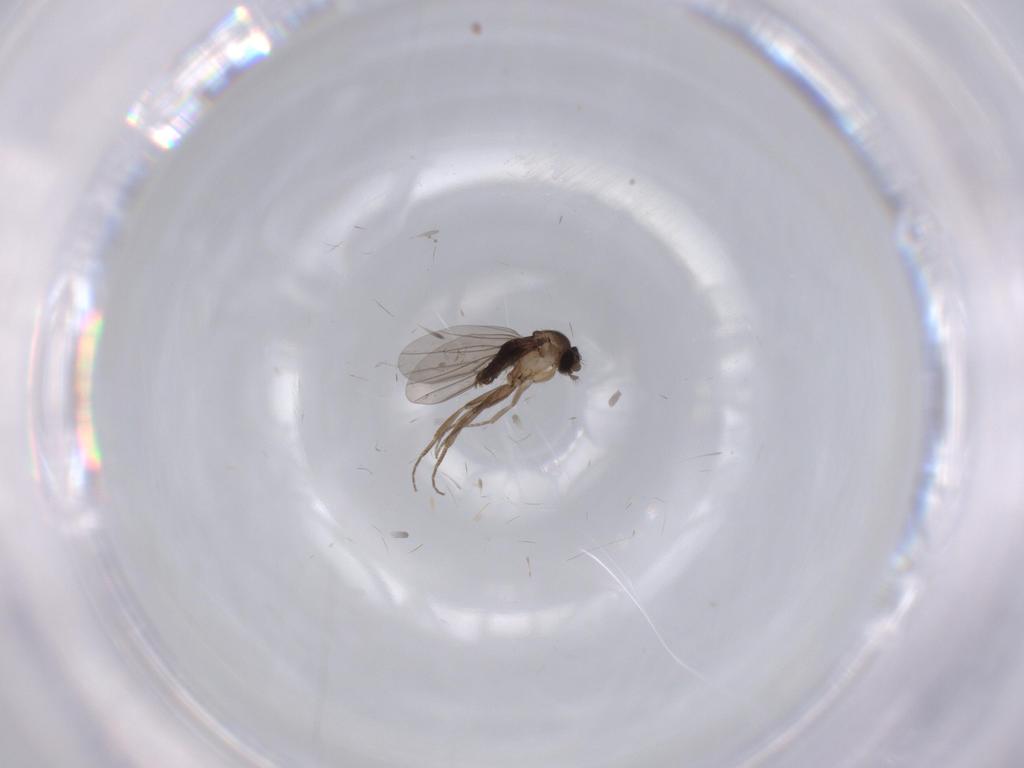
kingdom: Animalia
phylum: Arthropoda
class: Insecta
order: Diptera
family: Phoridae
